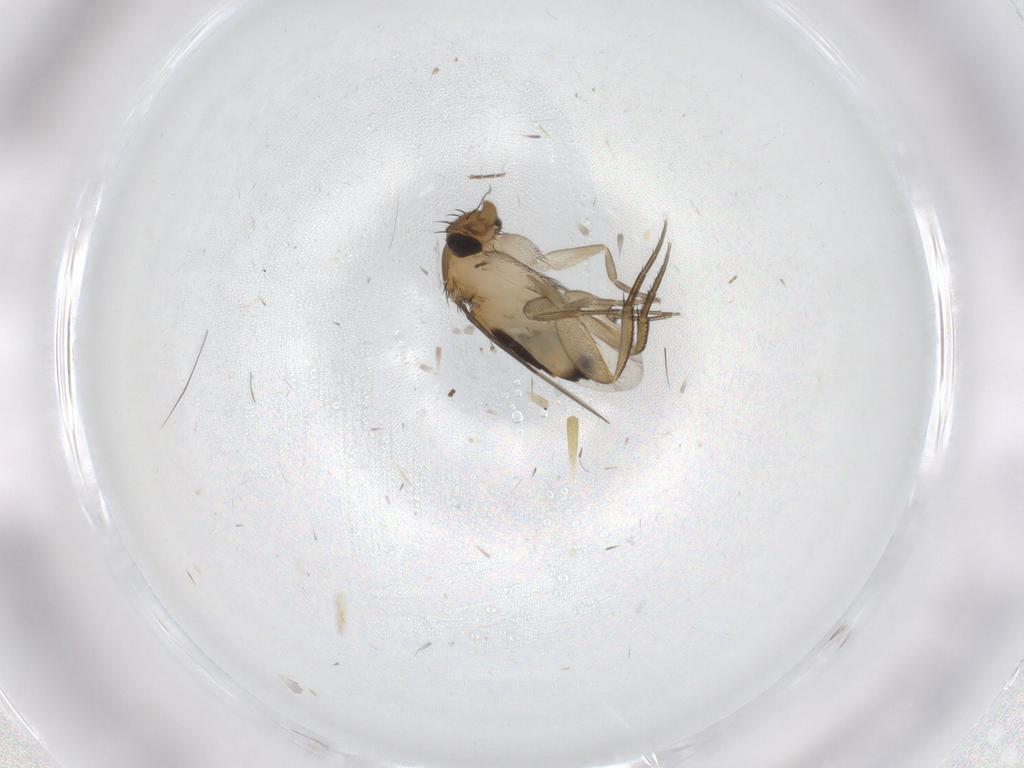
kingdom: Animalia
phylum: Arthropoda
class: Insecta
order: Diptera
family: Phoridae
